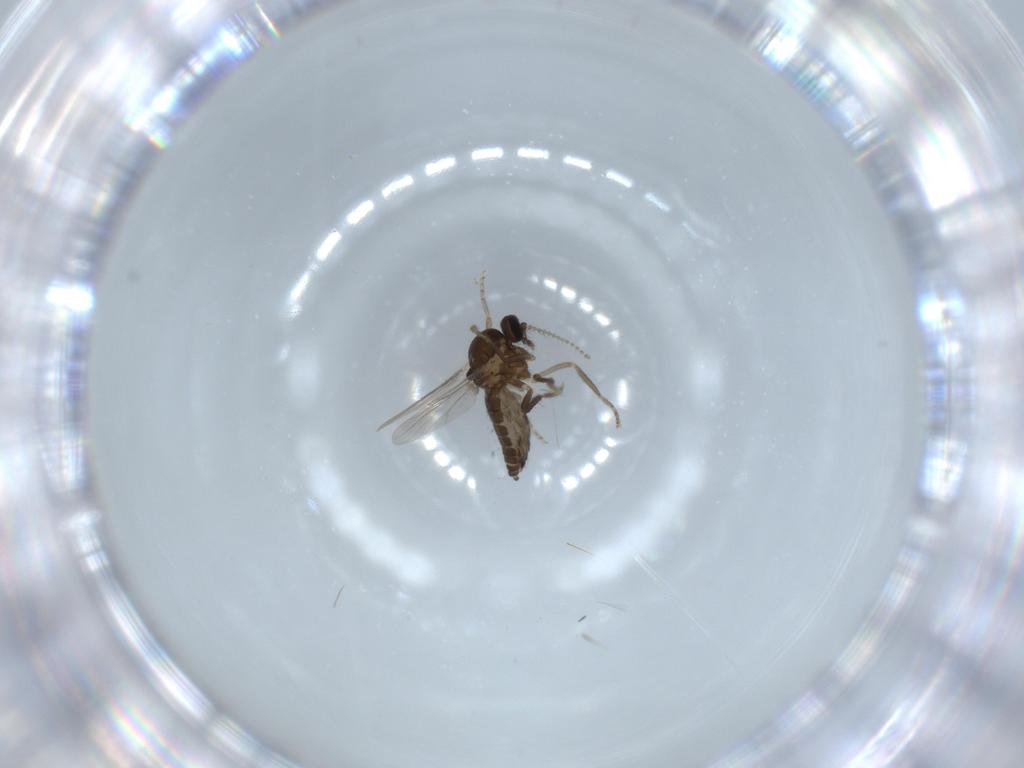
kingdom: Animalia
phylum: Arthropoda
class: Insecta
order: Diptera
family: Ceratopogonidae
